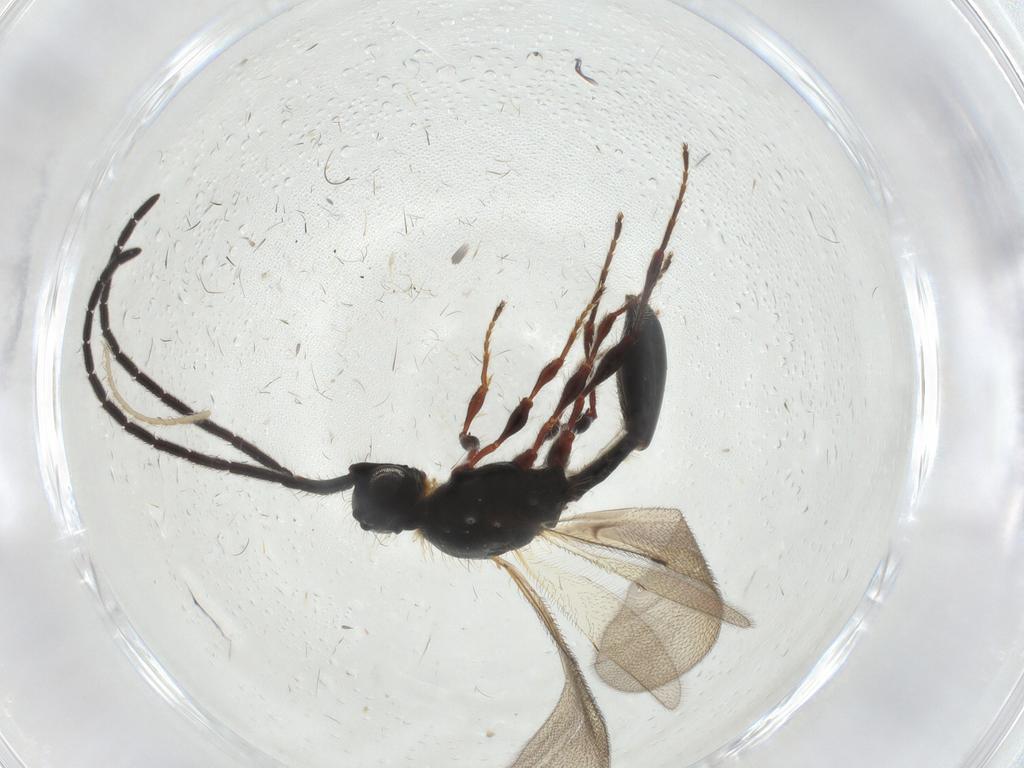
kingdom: Animalia
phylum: Arthropoda
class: Insecta
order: Hymenoptera
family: Diapriidae
